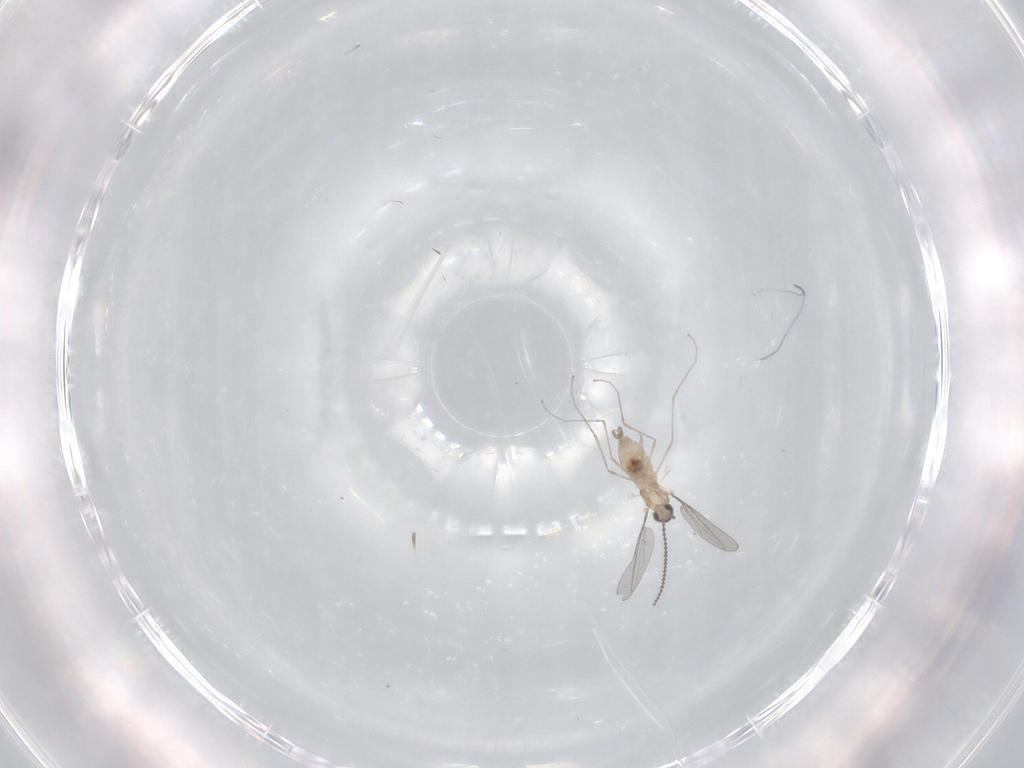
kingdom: Animalia
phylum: Arthropoda
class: Insecta
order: Diptera
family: Cecidomyiidae
